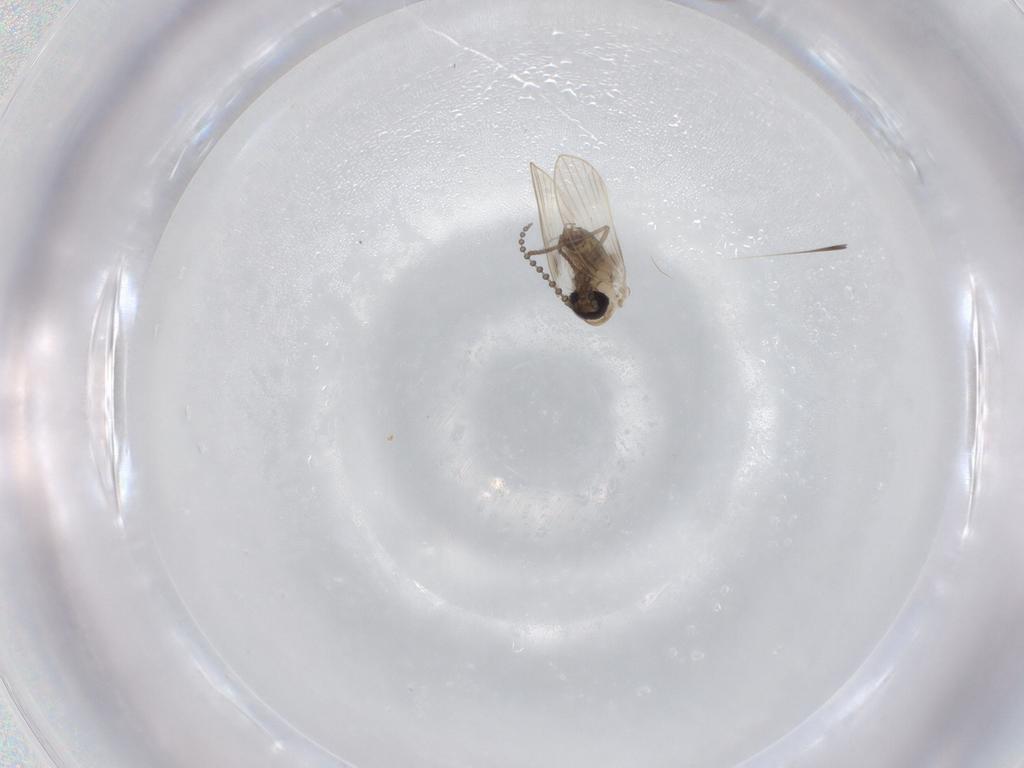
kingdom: Animalia
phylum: Arthropoda
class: Insecta
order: Diptera
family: Psychodidae
